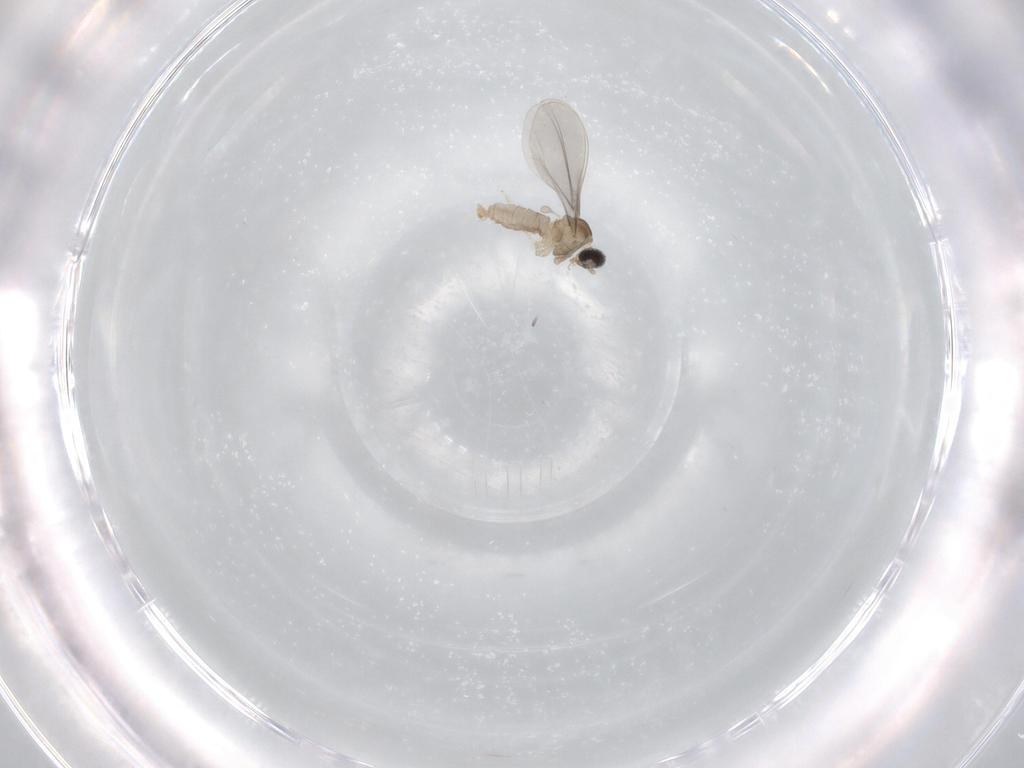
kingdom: Animalia
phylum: Arthropoda
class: Insecta
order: Diptera
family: Cecidomyiidae
